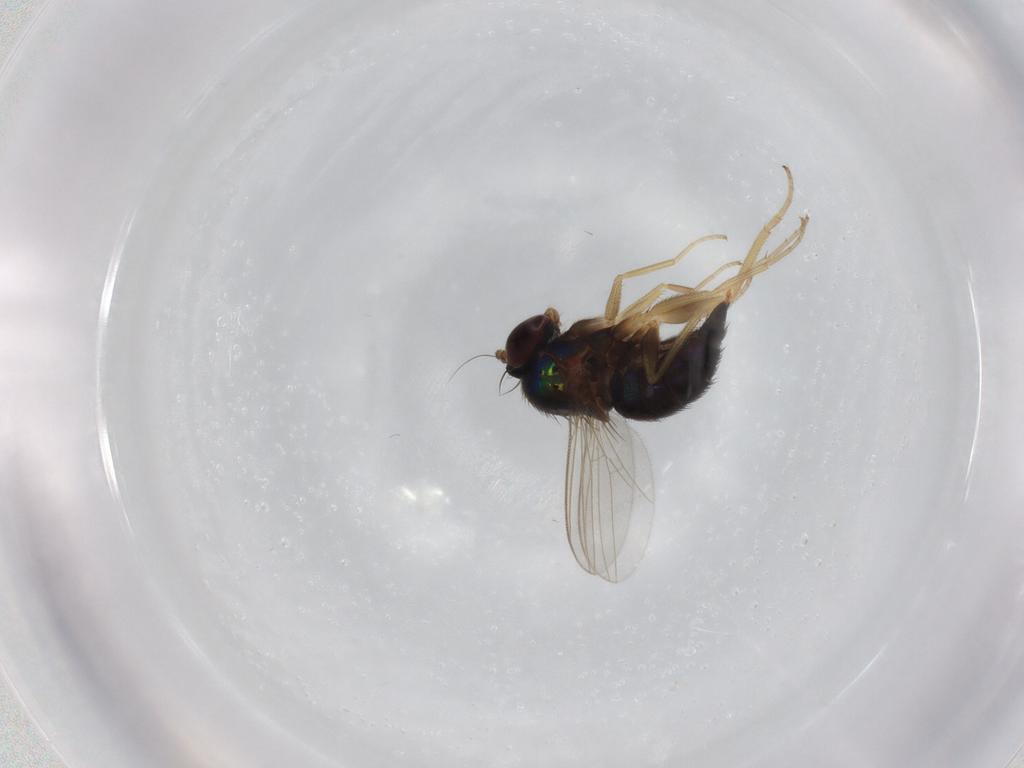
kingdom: Animalia
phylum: Arthropoda
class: Insecta
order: Diptera
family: Dolichopodidae
